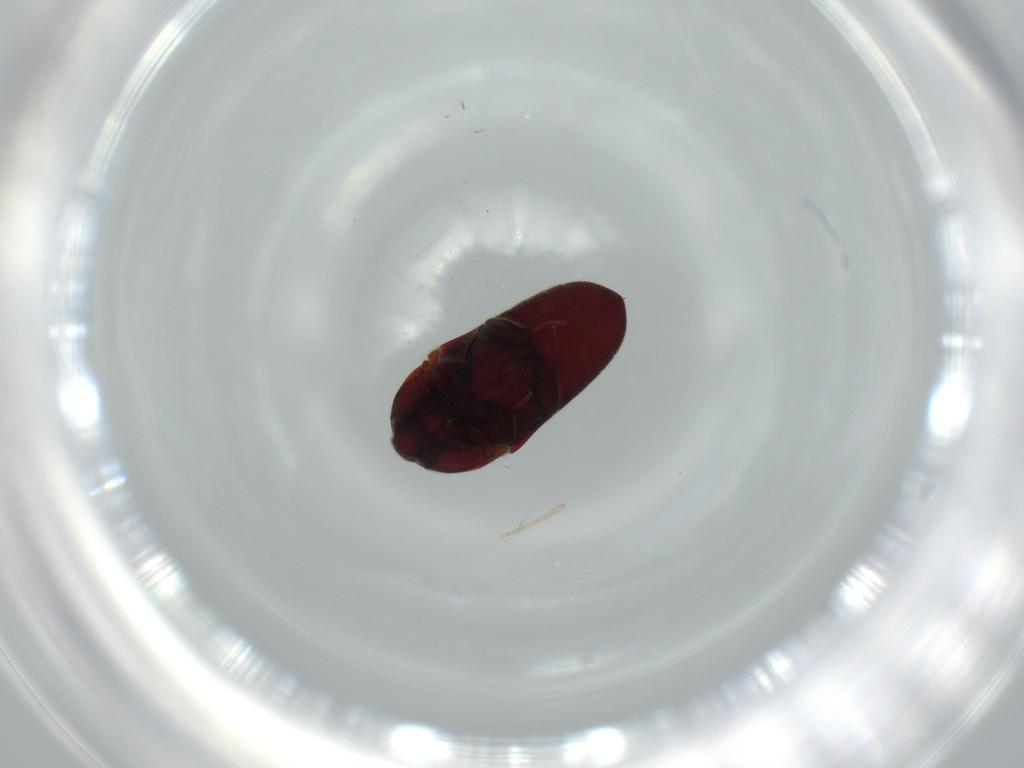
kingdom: Animalia
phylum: Arthropoda
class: Insecta
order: Coleoptera
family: Throscidae
